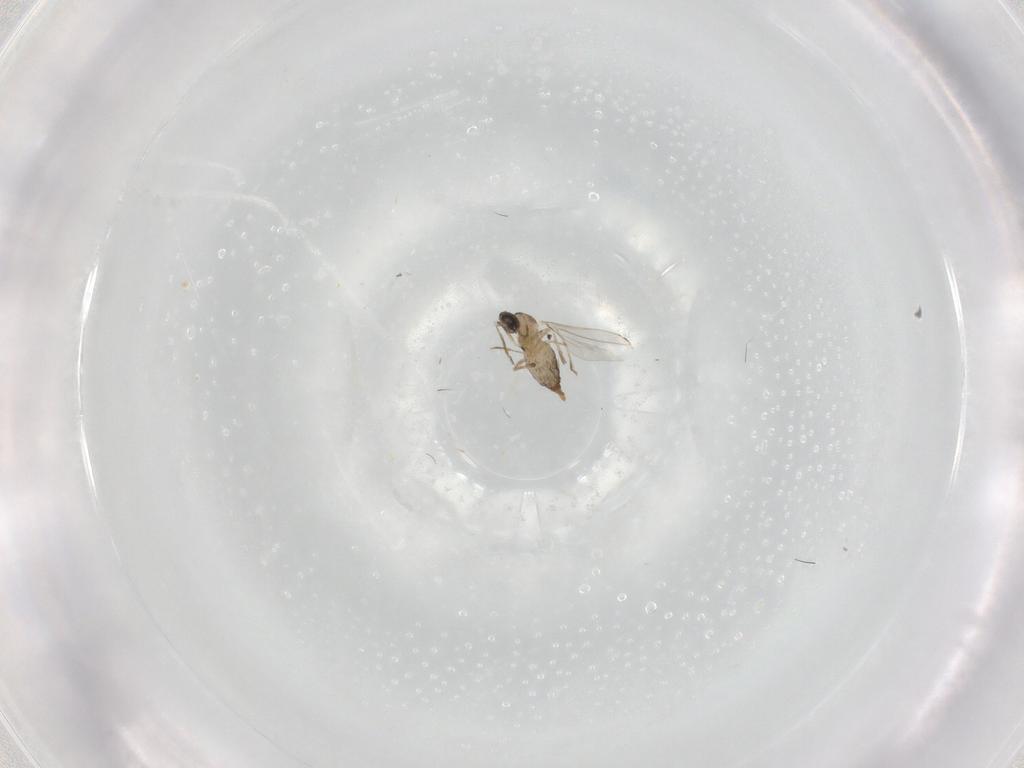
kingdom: Animalia
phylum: Arthropoda
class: Insecta
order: Diptera
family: Cecidomyiidae
